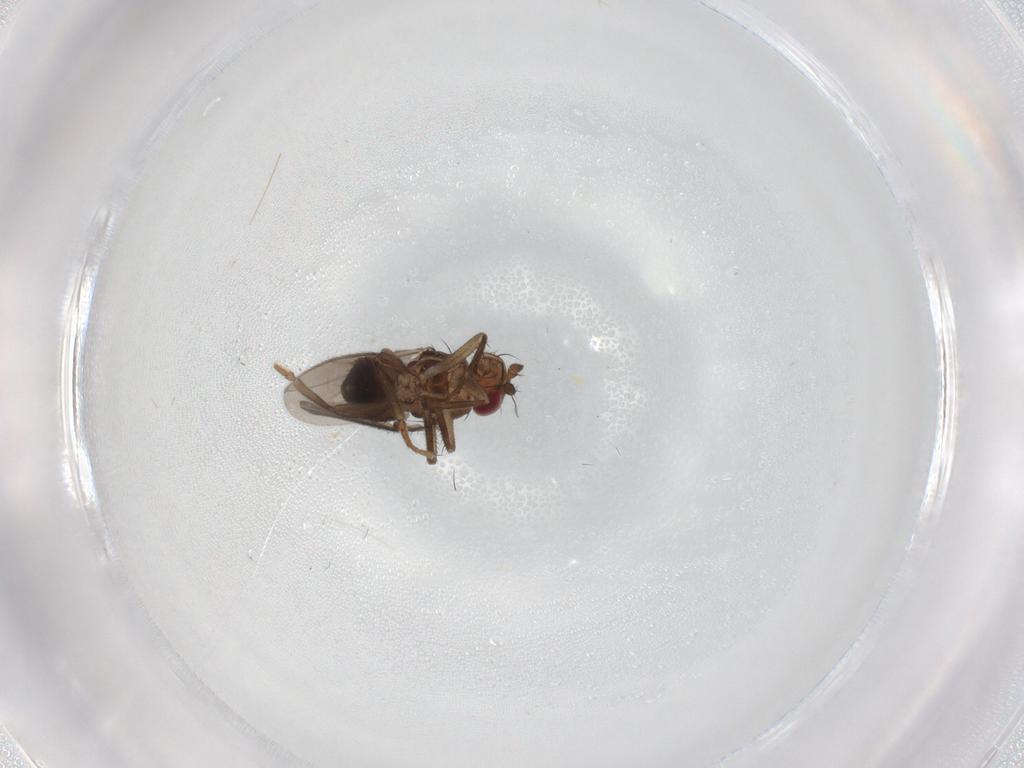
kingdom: Animalia
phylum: Arthropoda
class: Insecta
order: Diptera
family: Sphaeroceridae
